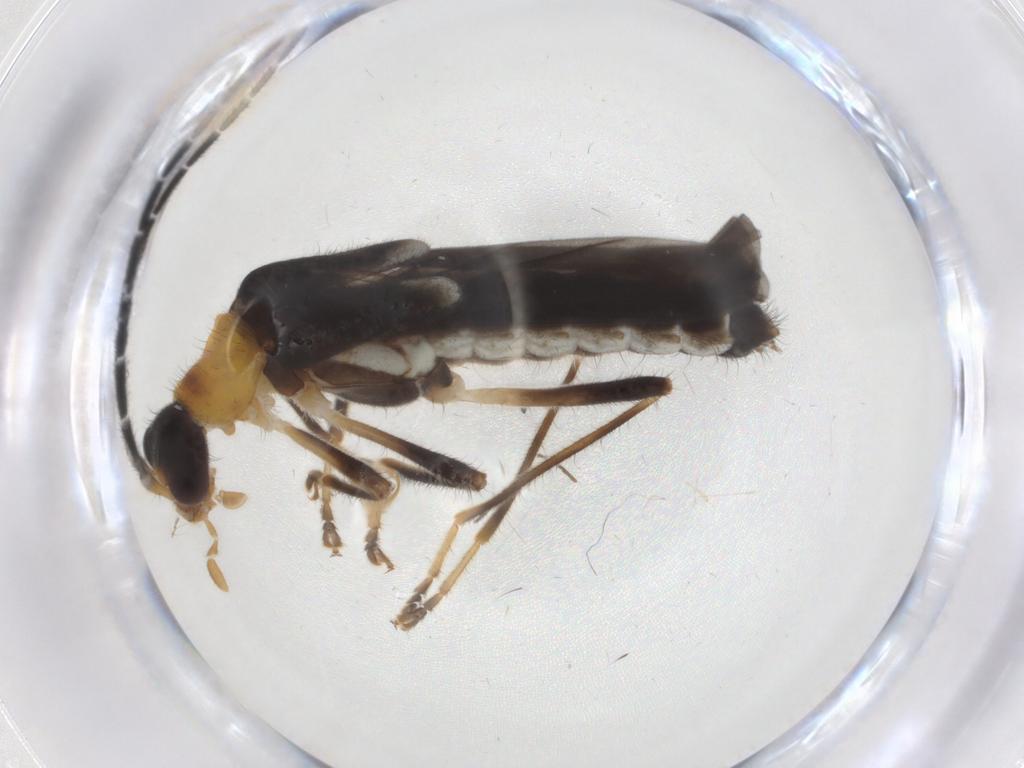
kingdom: Animalia
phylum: Arthropoda
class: Insecta
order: Coleoptera
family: Cantharidae
